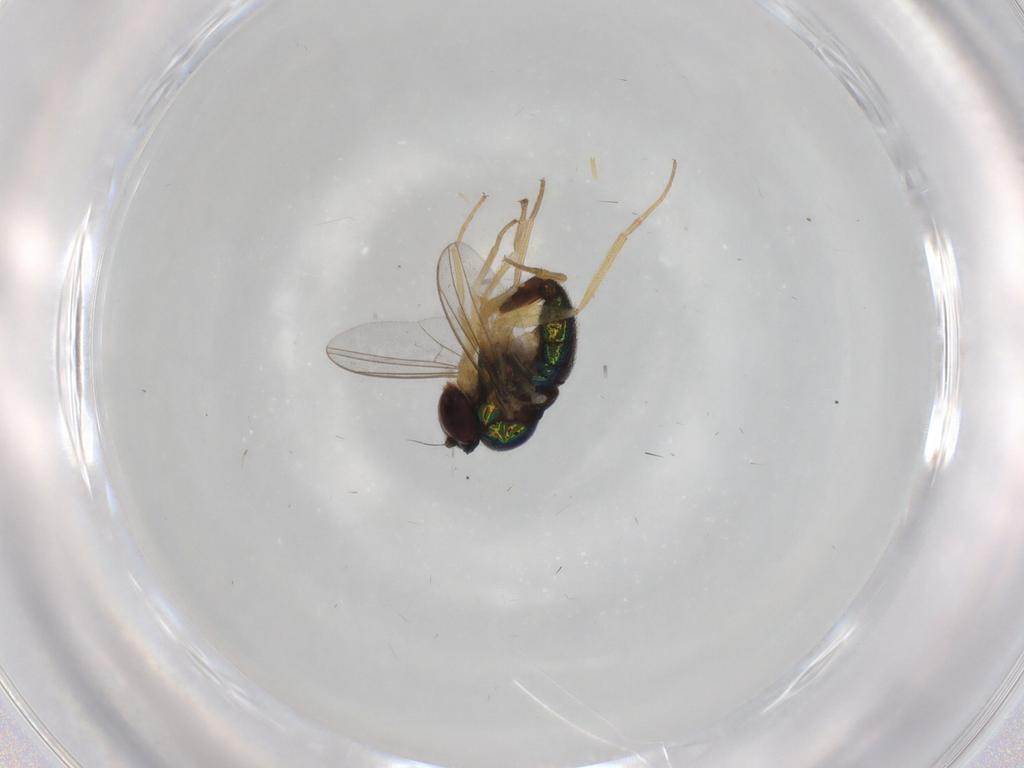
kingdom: Animalia
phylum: Arthropoda
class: Insecta
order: Diptera
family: Dolichopodidae
